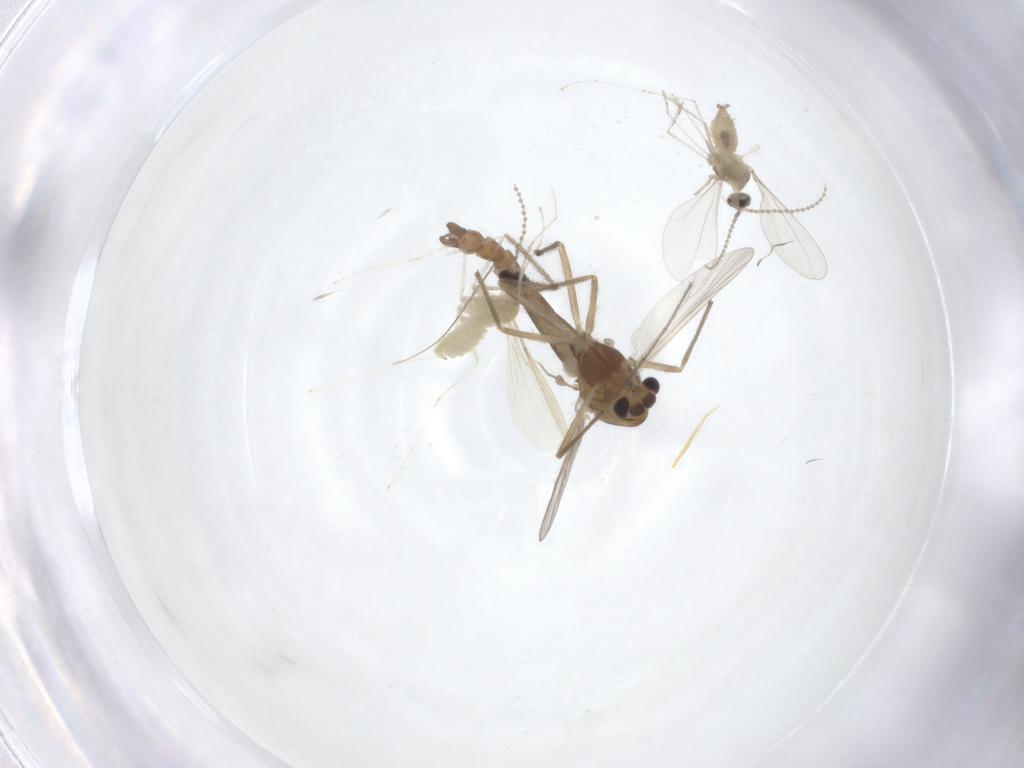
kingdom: Animalia
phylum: Arthropoda
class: Insecta
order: Diptera
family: Chironomidae
